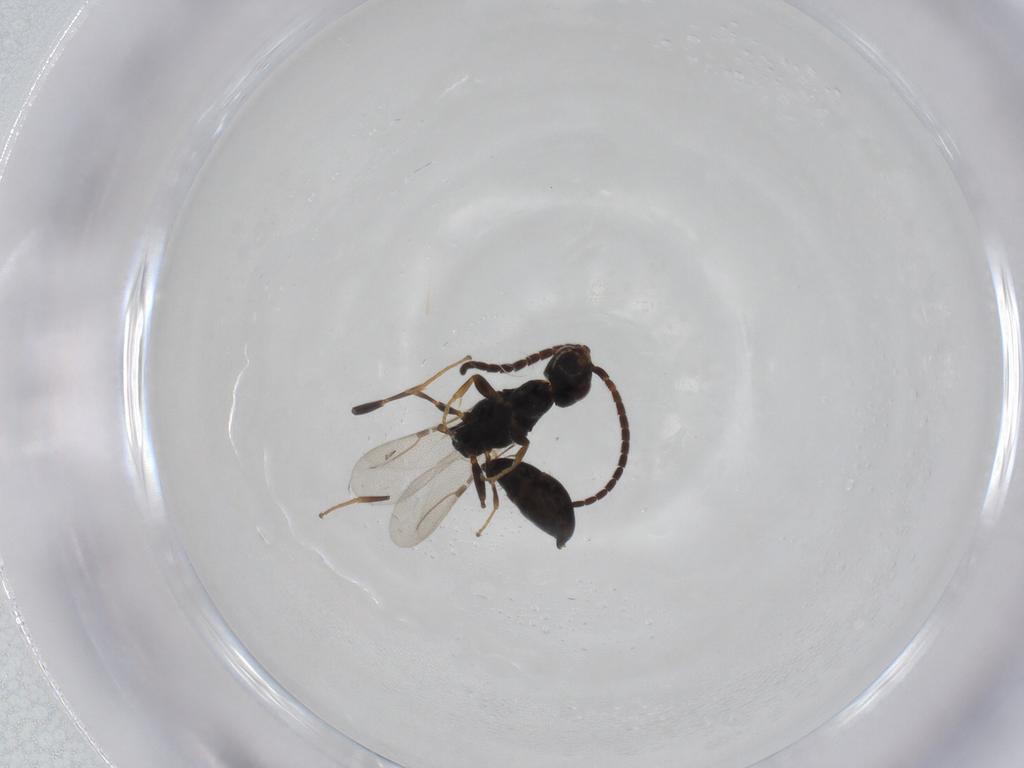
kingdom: Animalia
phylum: Arthropoda
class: Insecta
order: Hymenoptera
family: Bethylidae
